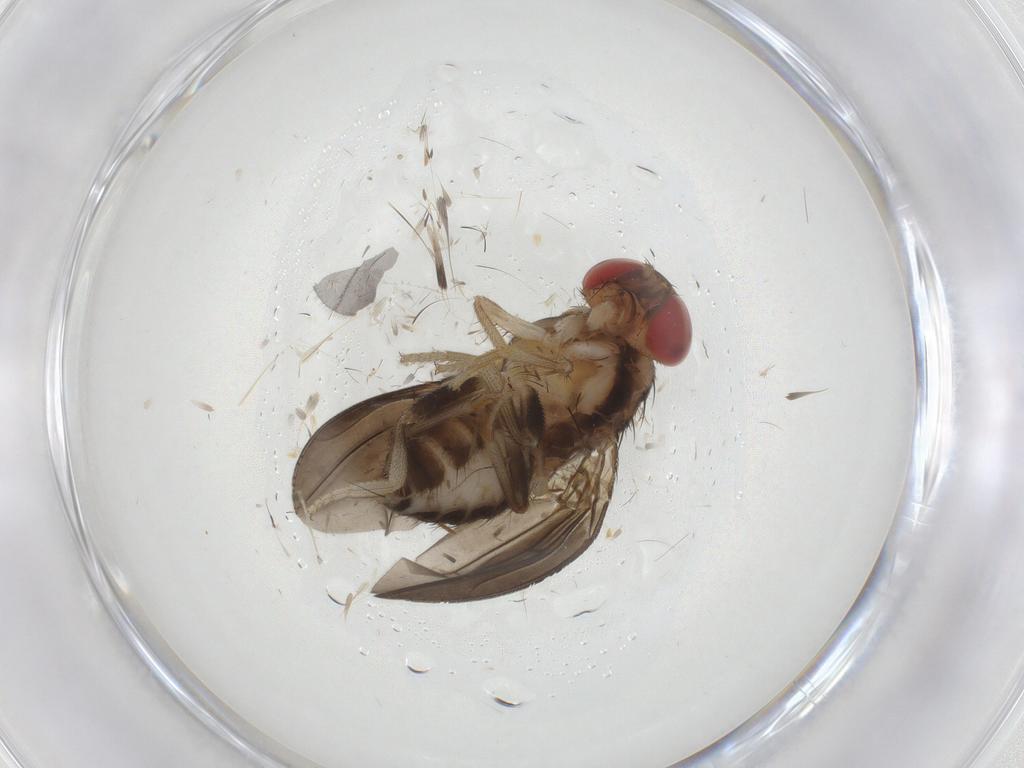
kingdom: Animalia
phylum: Arthropoda
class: Insecta
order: Diptera
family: Drosophilidae
